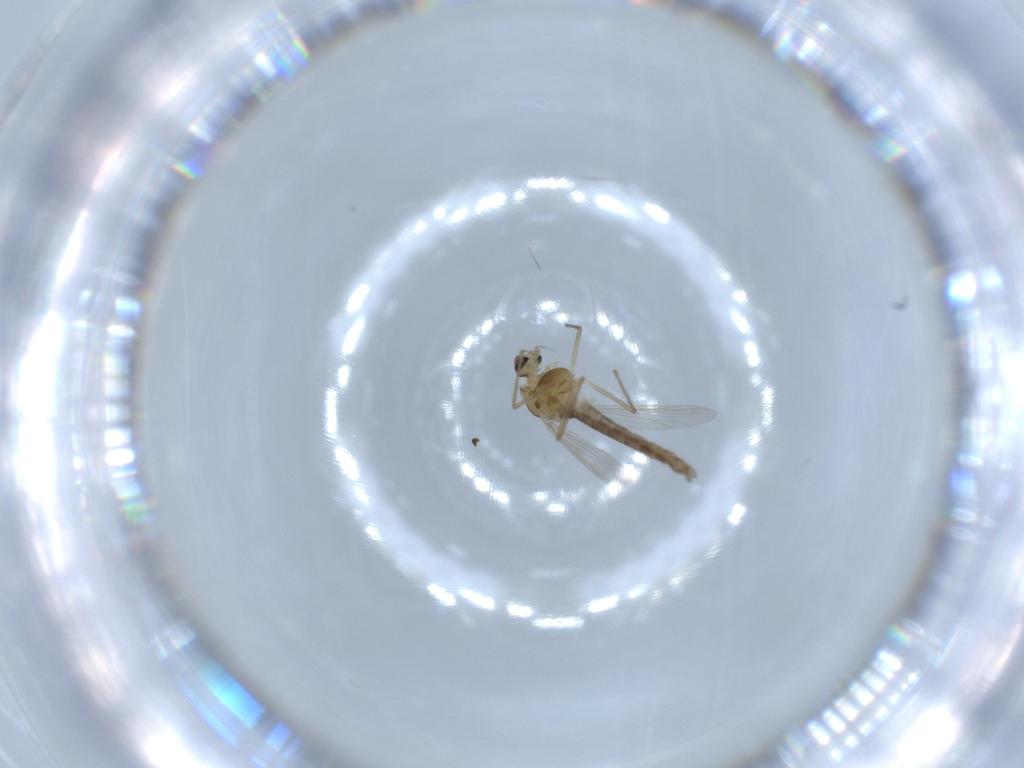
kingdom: Animalia
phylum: Arthropoda
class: Insecta
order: Diptera
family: Chironomidae
